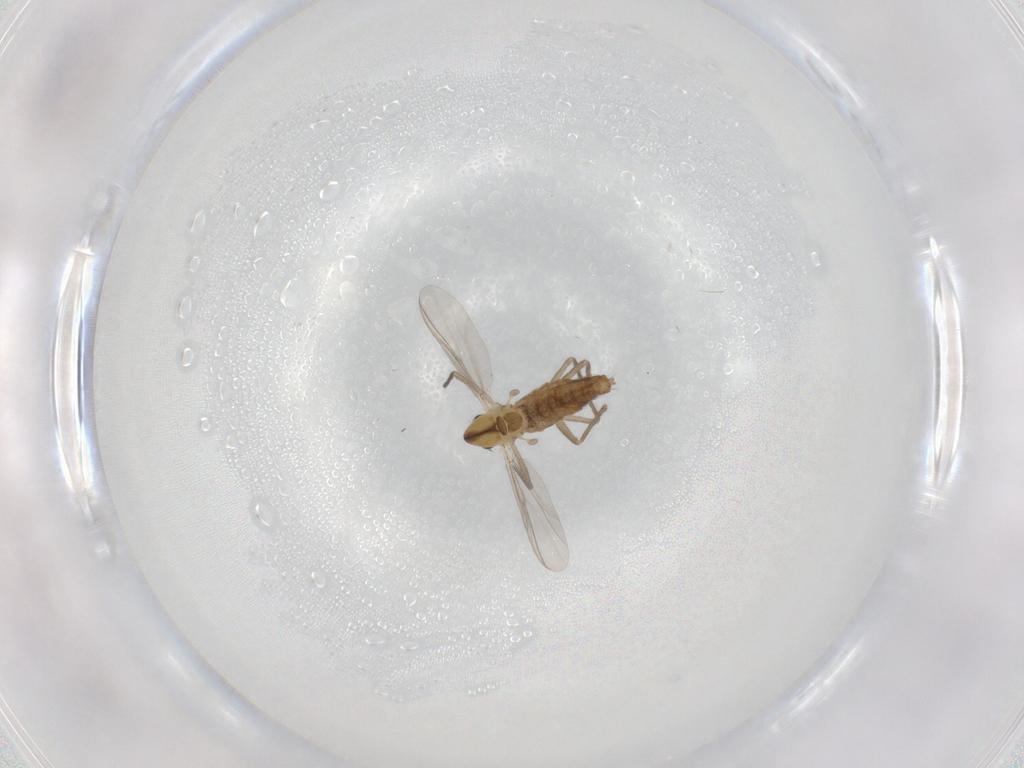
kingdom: Animalia
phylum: Arthropoda
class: Insecta
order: Diptera
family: Chironomidae
